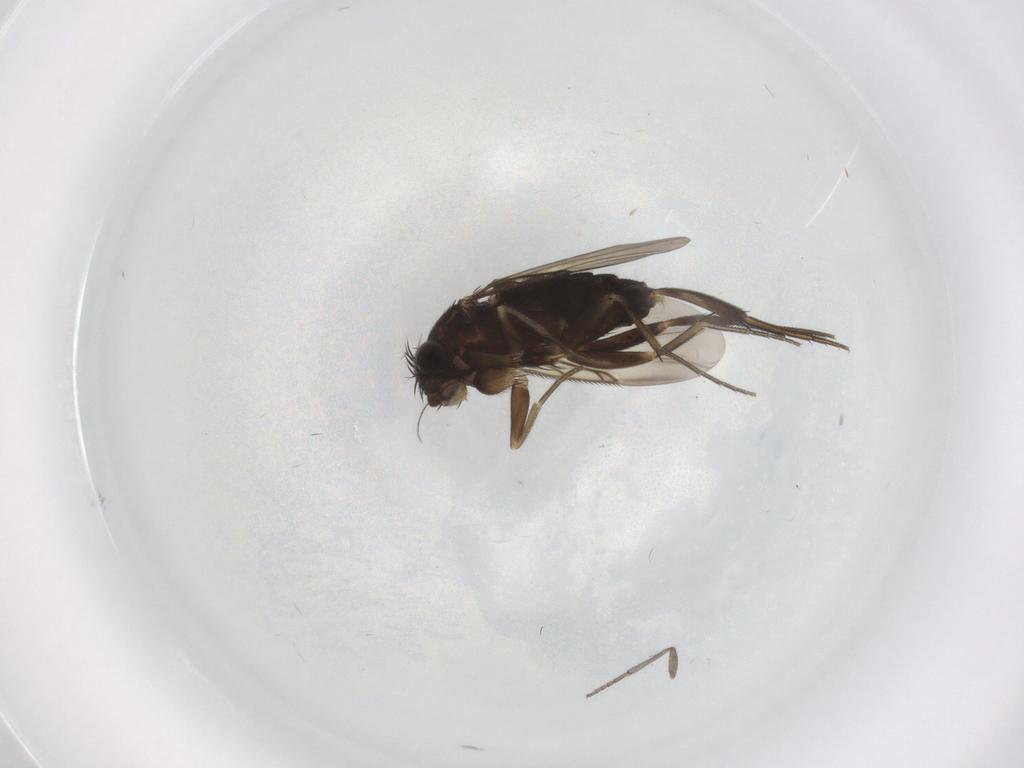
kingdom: Animalia
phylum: Arthropoda
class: Insecta
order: Diptera
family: Phoridae
